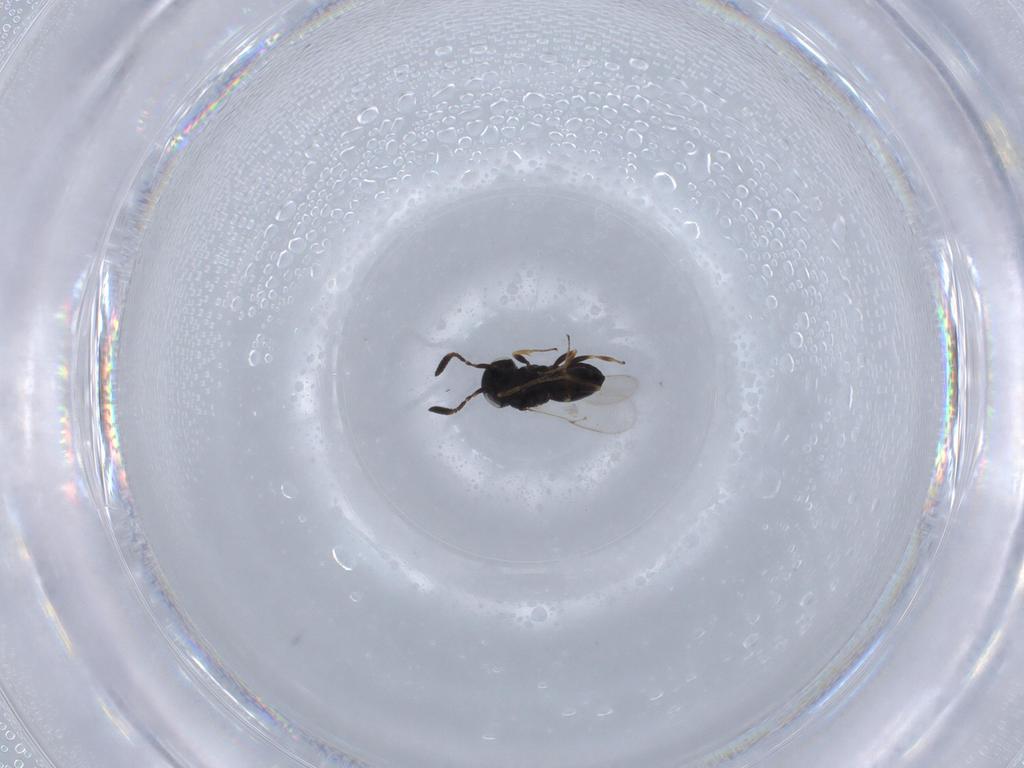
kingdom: Animalia
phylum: Arthropoda
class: Insecta
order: Hymenoptera
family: Scelionidae
